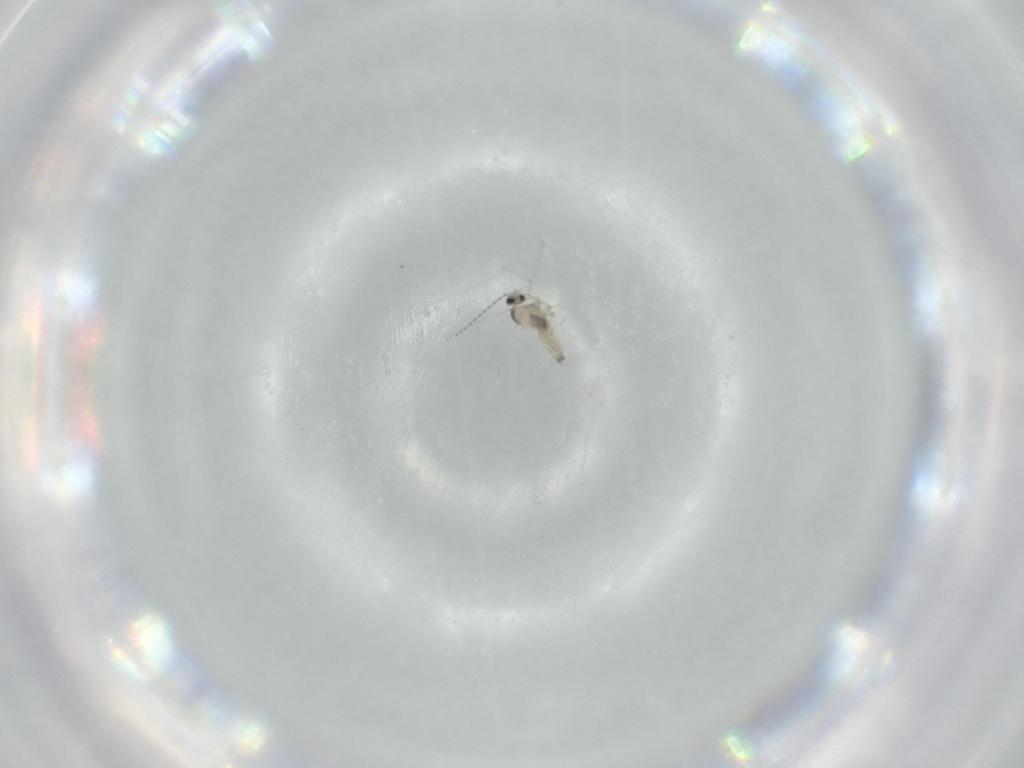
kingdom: Animalia
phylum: Arthropoda
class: Insecta
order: Diptera
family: Cecidomyiidae
